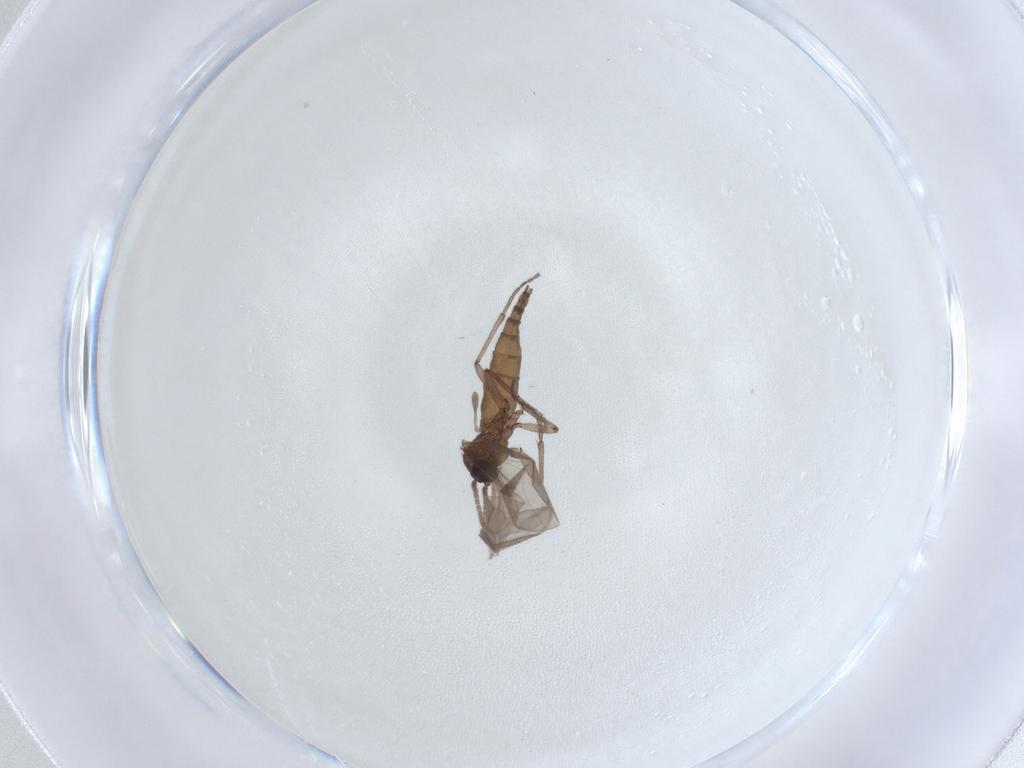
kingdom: Animalia
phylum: Arthropoda
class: Insecta
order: Diptera
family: Sciaridae
